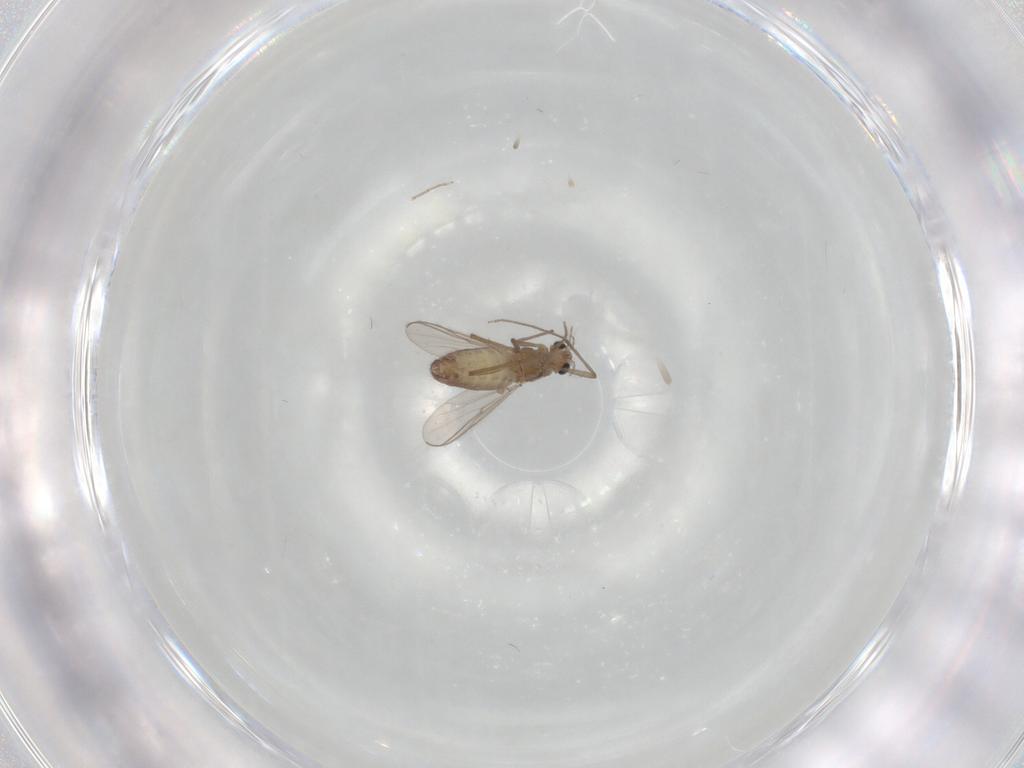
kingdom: Animalia
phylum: Arthropoda
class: Insecta
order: Diptera
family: Chironomidae
